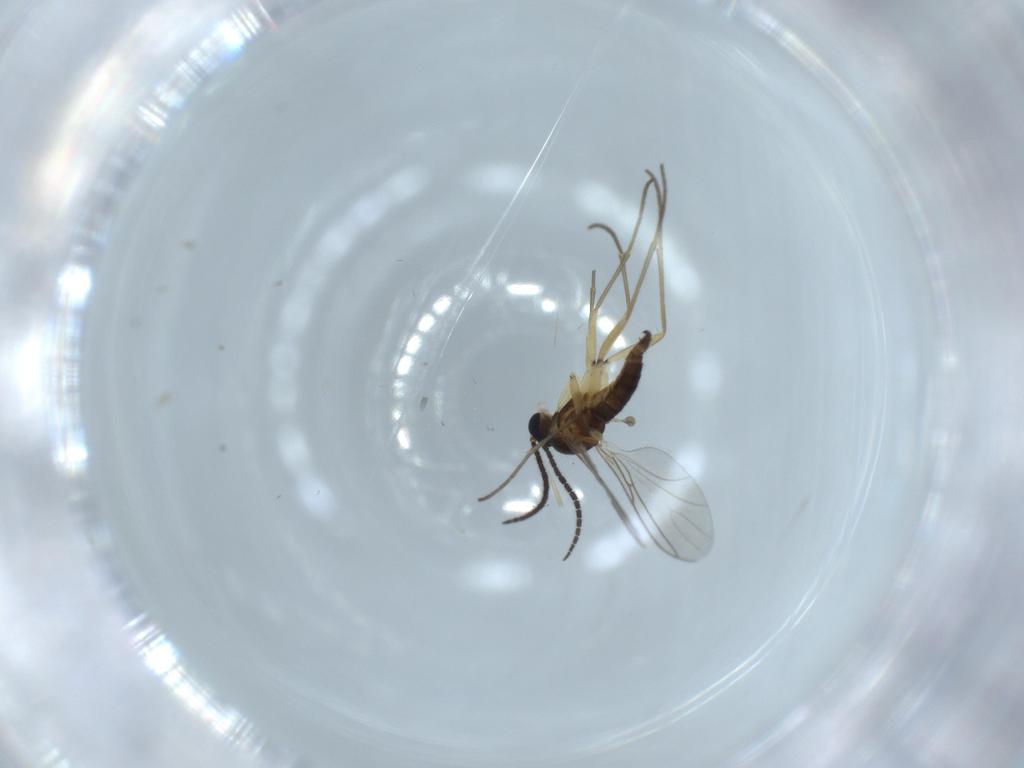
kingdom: Animalia
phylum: Arthropoda
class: Insecta
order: Diptera
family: Sciaridae
